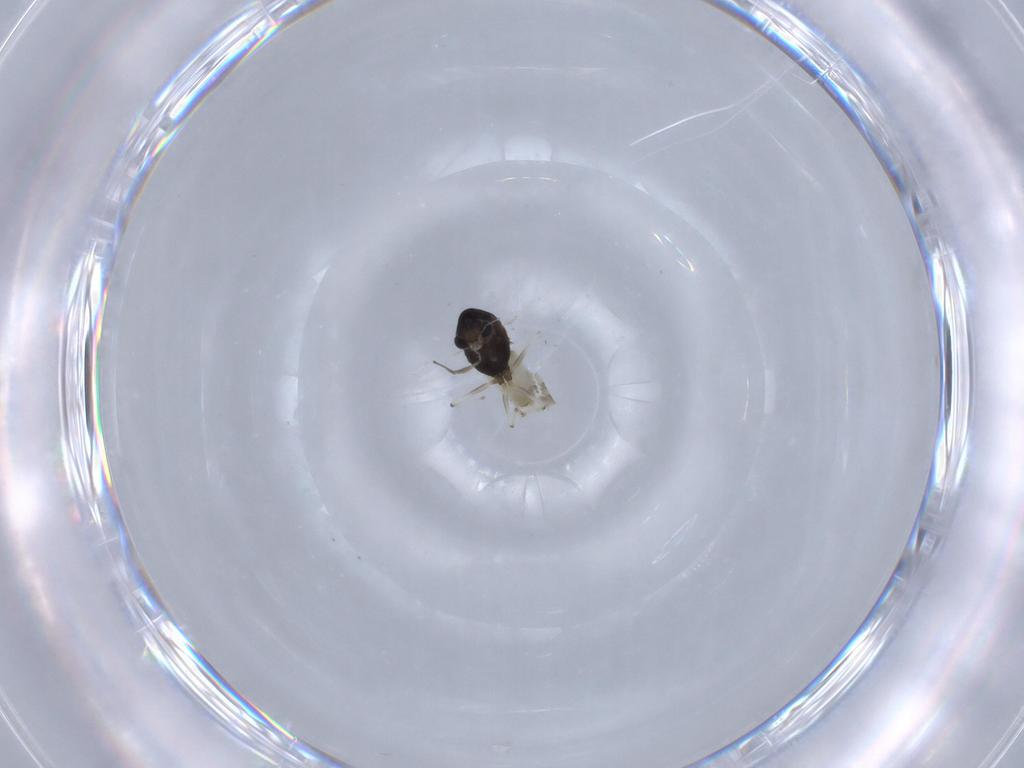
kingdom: Animalia
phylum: Arthropoda
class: Insecta
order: Diptera
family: Chironomidae
